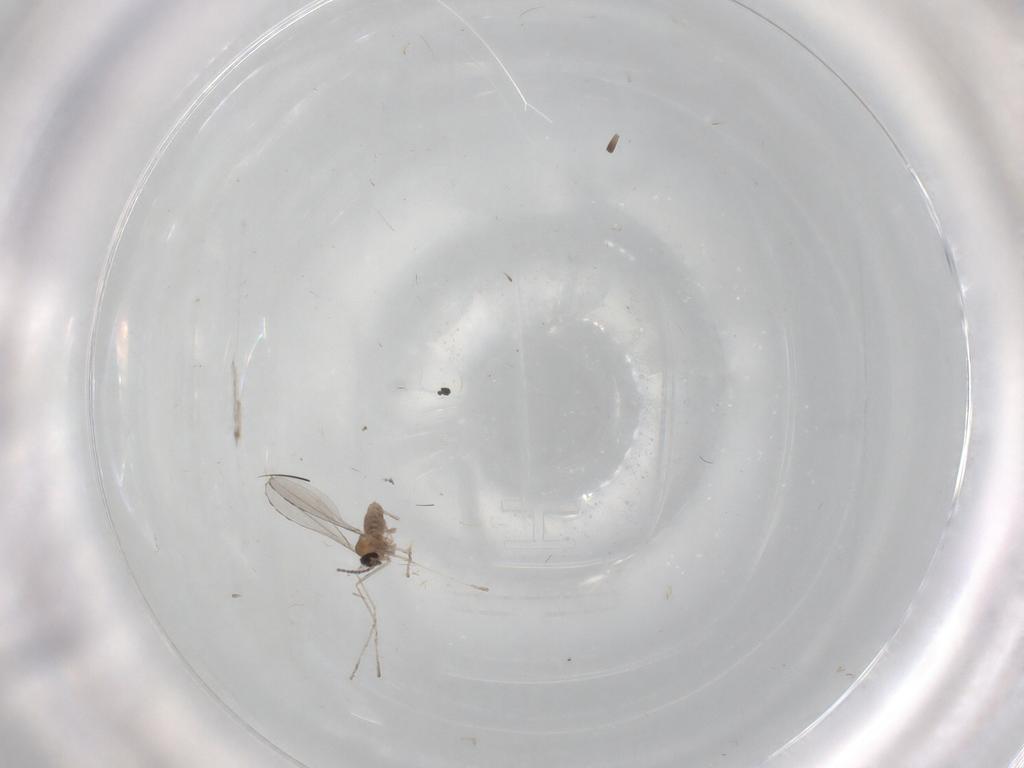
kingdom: Animalia
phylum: Arthropoda
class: Insecta
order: Diptera
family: Cecidomyiidae
